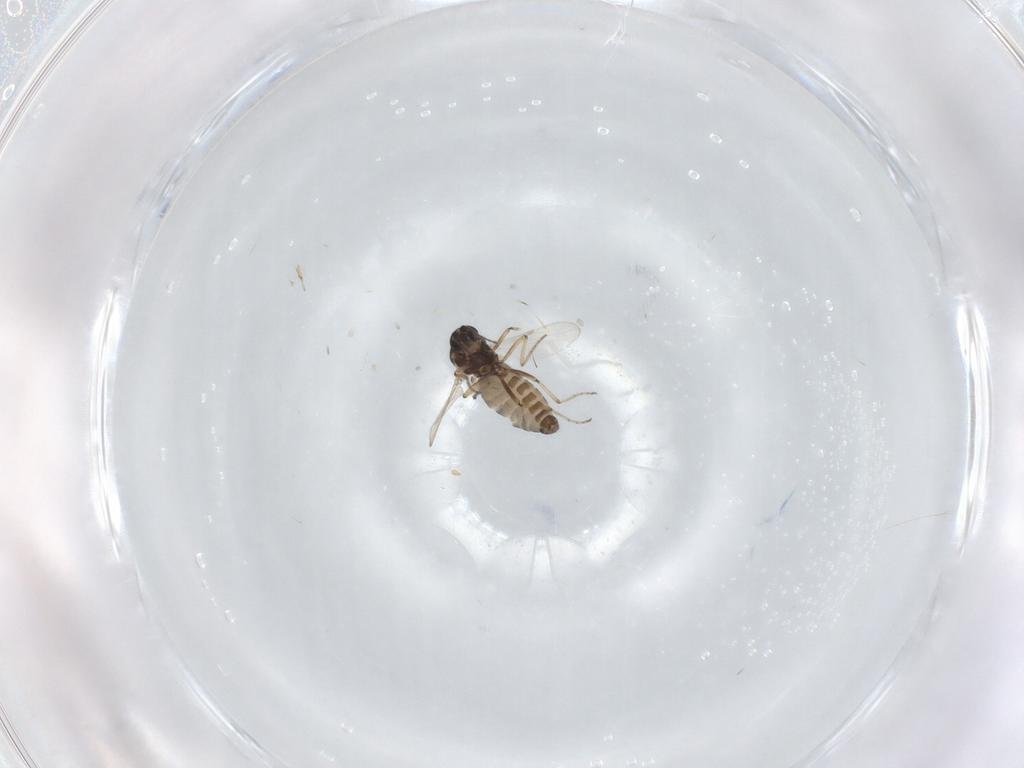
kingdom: Animalia
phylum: Arthropoda
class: Insecta
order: Diptera
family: Ceratopogonidae
